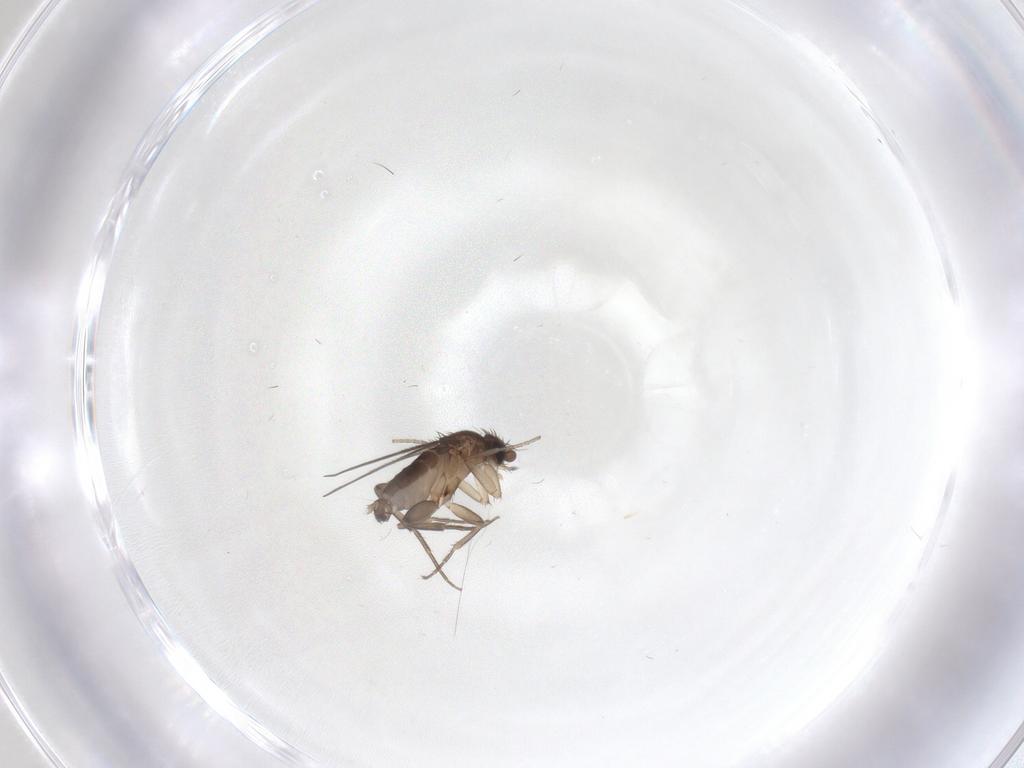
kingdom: Animalia
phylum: Arthropoda
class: Insecta
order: Diptera
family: Phoridae
